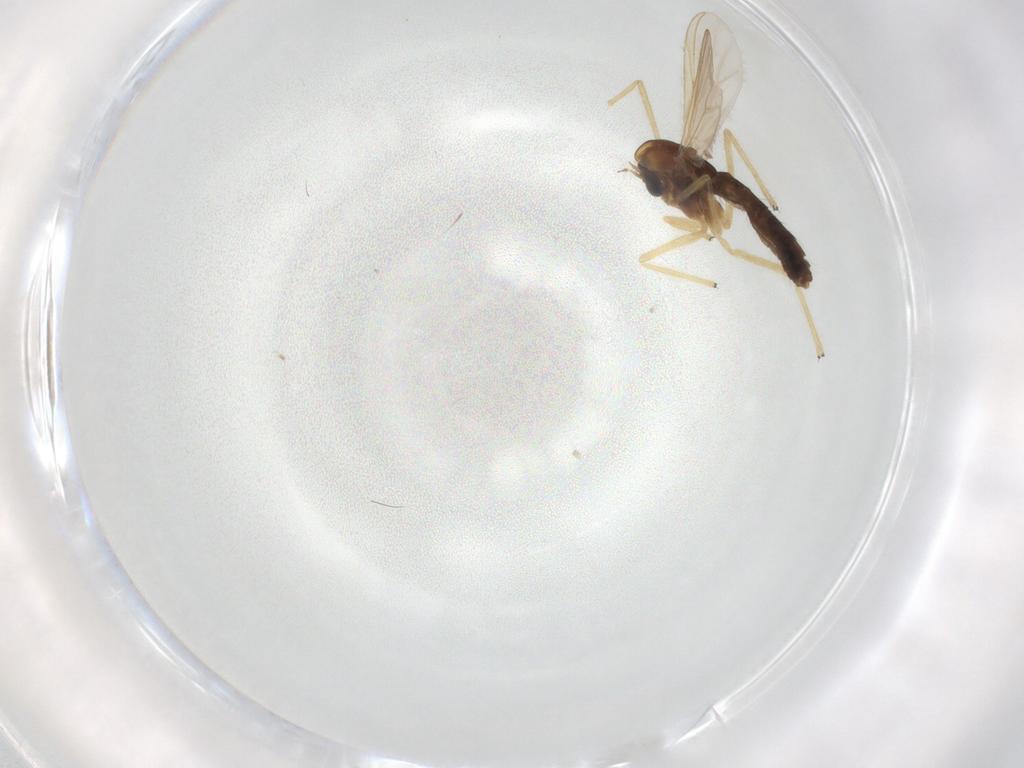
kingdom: Animalia
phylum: Arthropoda
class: Insecta
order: Diptera
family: Chironomidae
